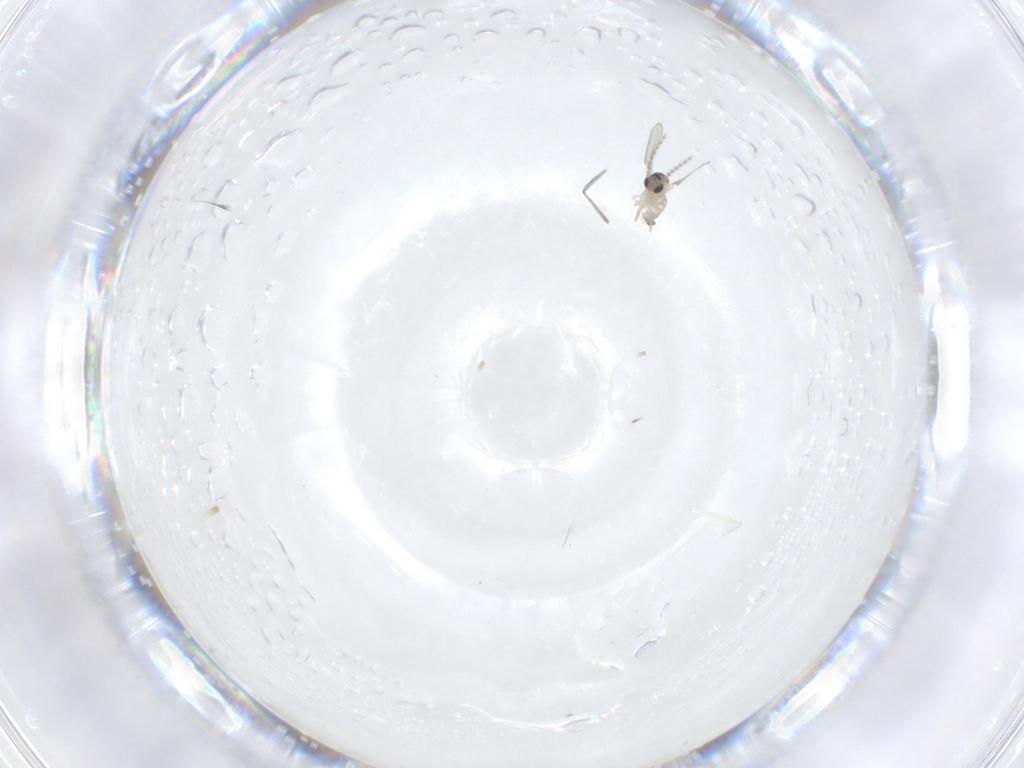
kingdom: Animalia
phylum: Arthropoda
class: Insecta
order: Diptera
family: Cecidomyiidae
